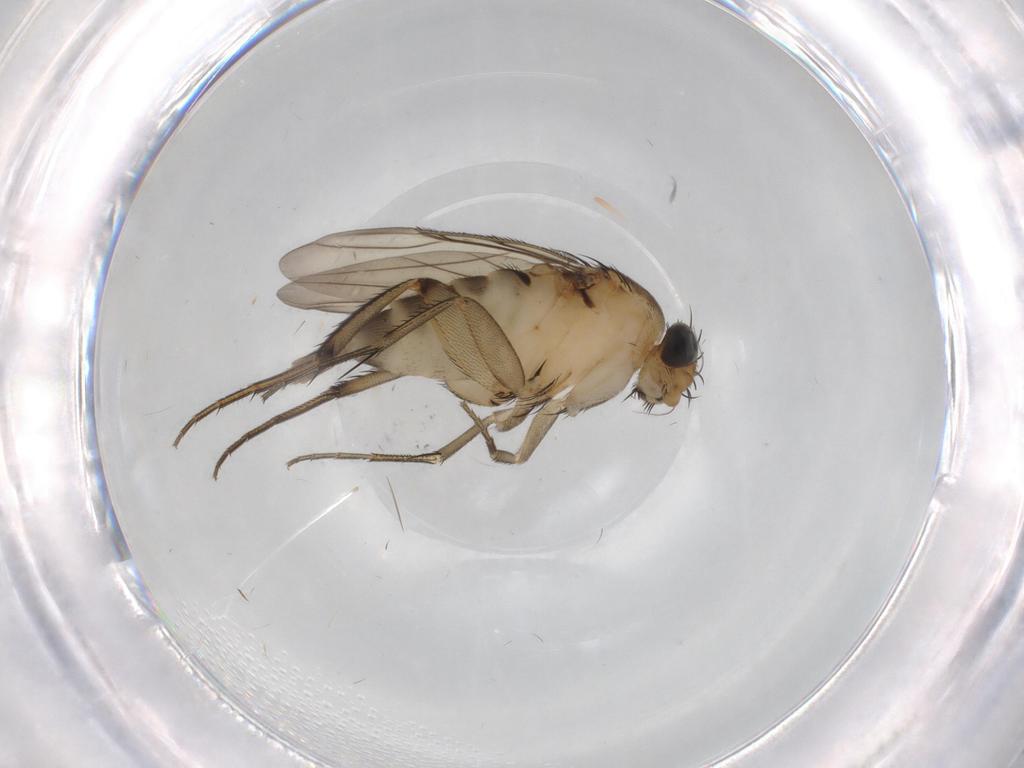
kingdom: Animalia
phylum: Arthropoda
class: Insecta
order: Diptera
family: Phoridae
